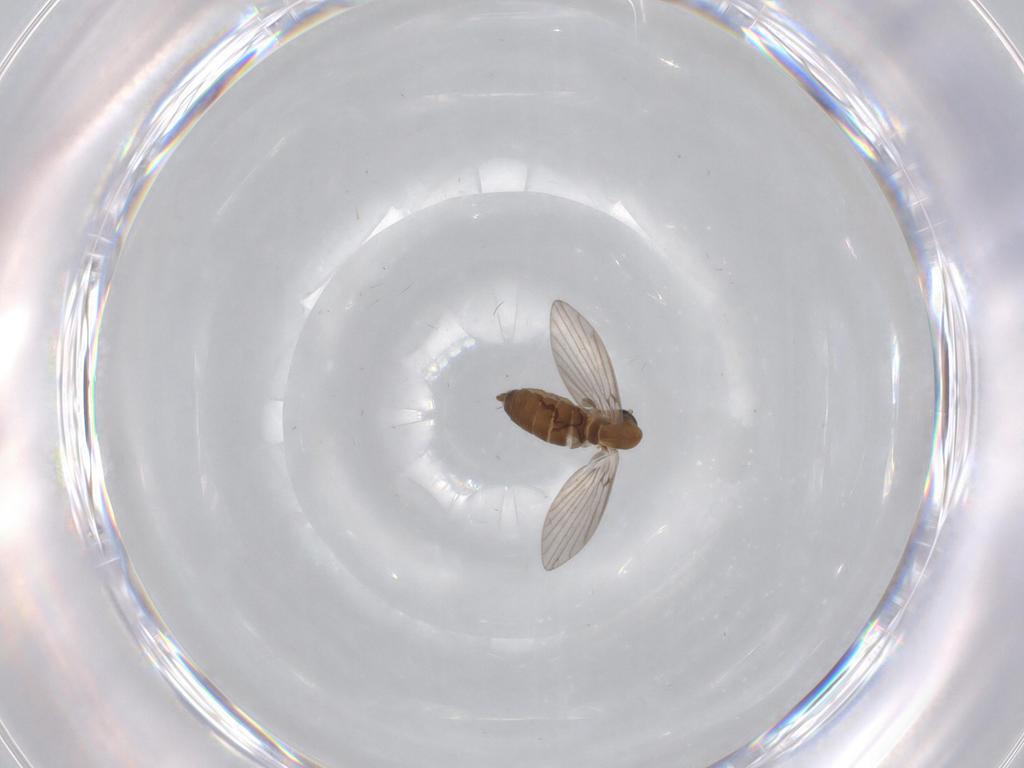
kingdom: Animalia
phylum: Arthropoda
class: Insecta
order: Diptera
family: Psychodidae
